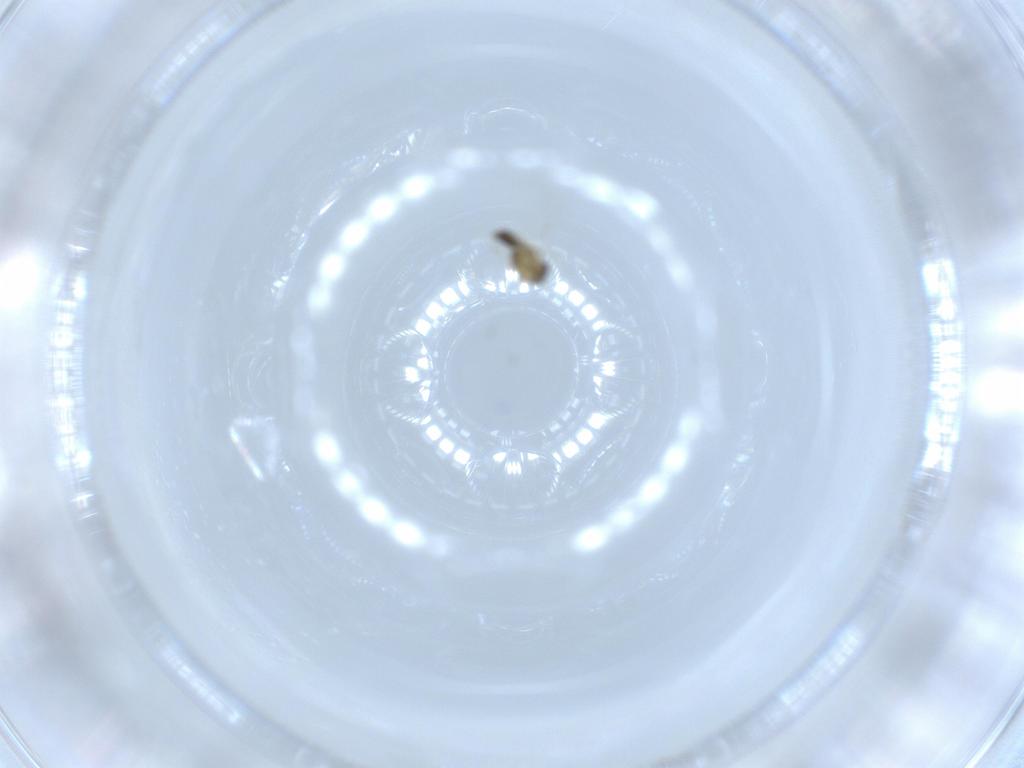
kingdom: Animalia
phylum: Arthropoda
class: Insecta
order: Diptera
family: Chironomidae
